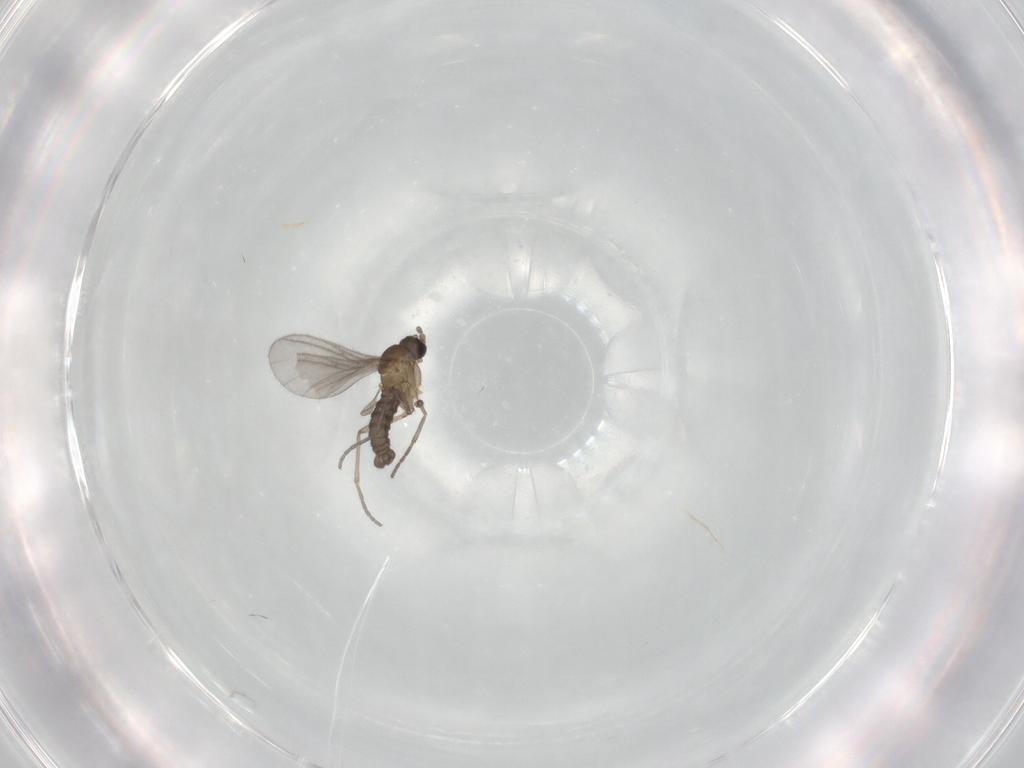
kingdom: Animalia
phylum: Arthropoda
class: Insecta
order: Diptera
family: Sciaridae
